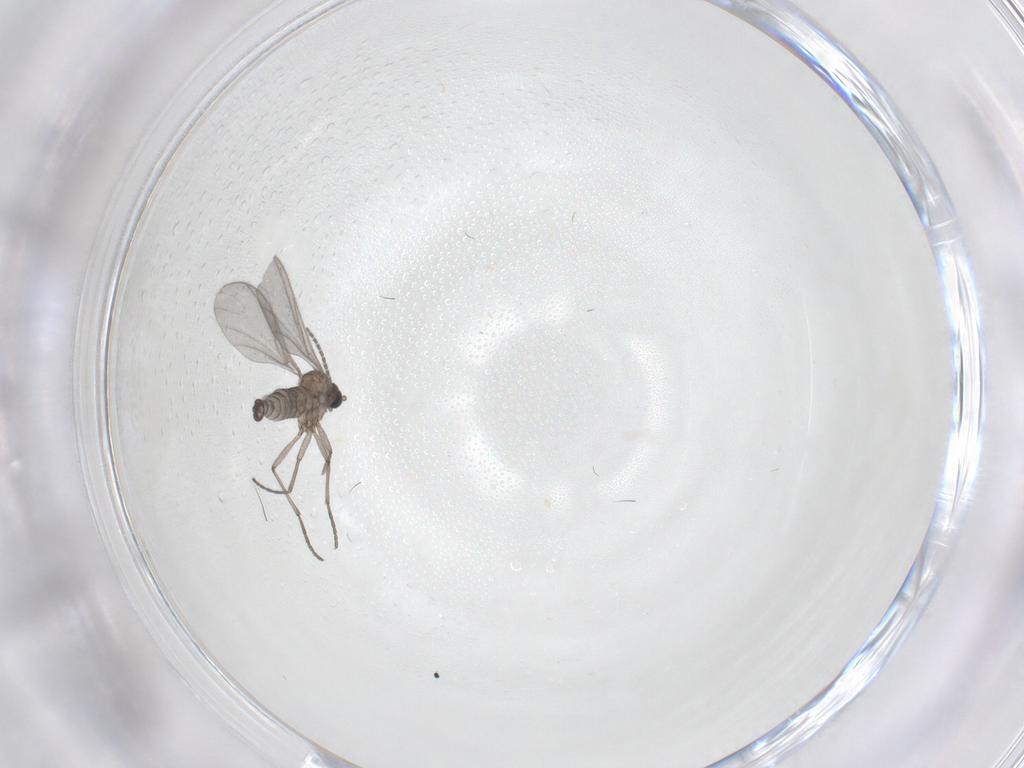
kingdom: Animalia
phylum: Arthropoda
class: Insecta
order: Diptera
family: Sciaridae
